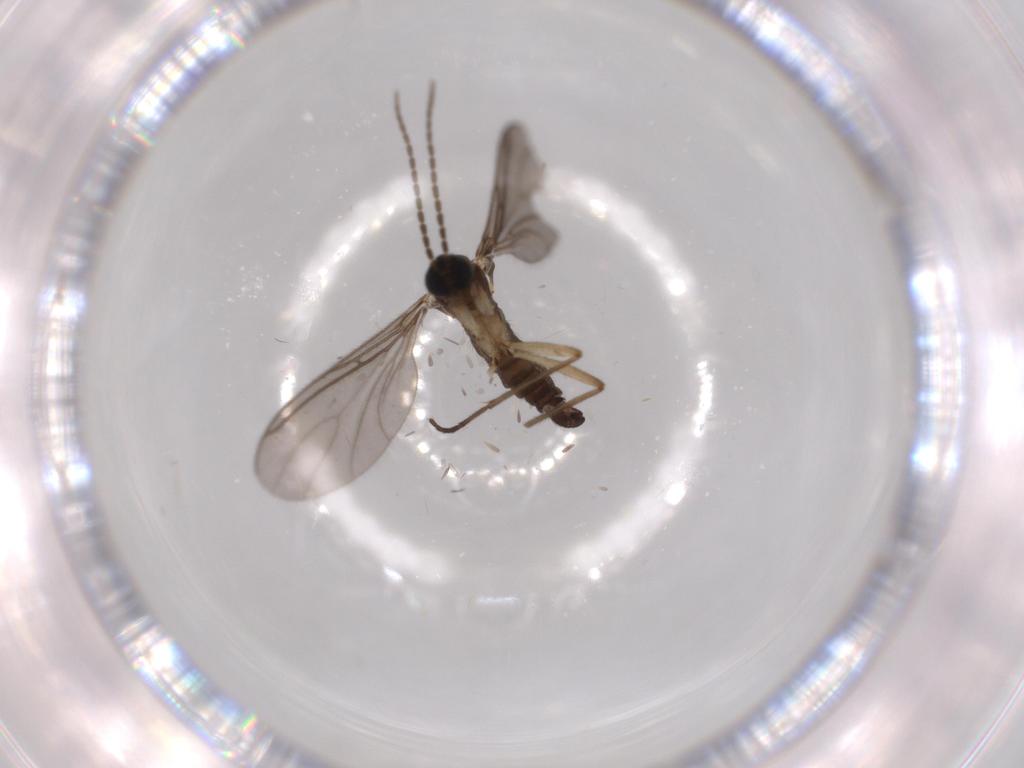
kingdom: Animalia
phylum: Arthropoda
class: Insecta
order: Diptera
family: Sciaridae
